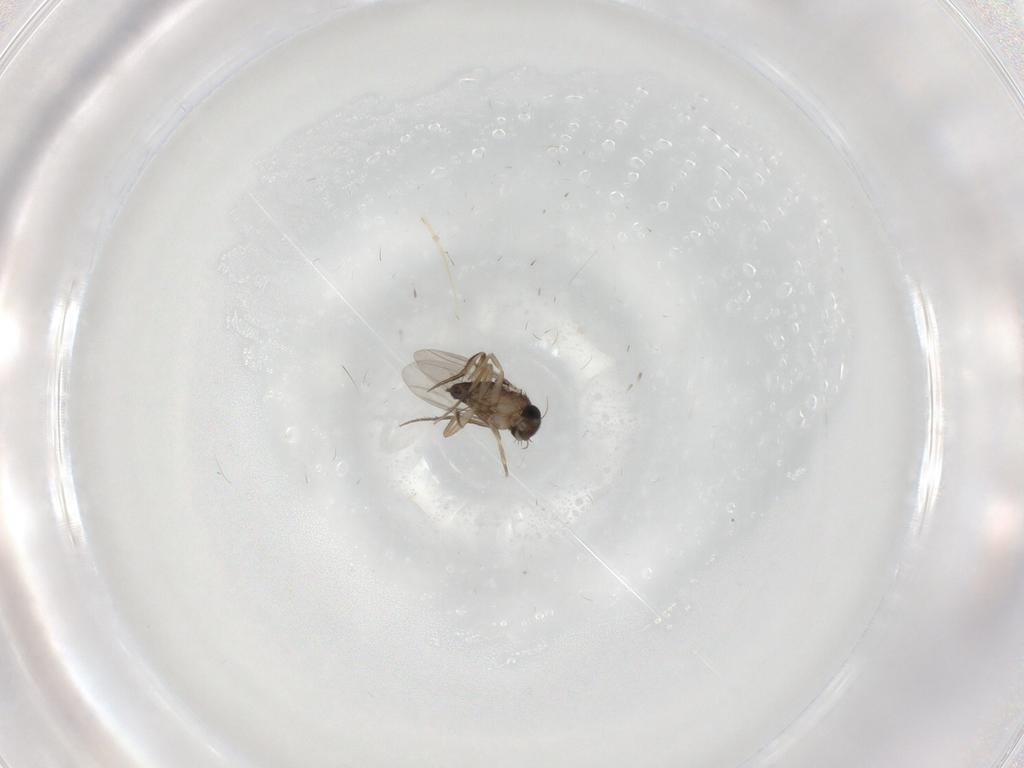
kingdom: Animalia
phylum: Arthropoda
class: Insecta
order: Diptera
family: Phoridae
